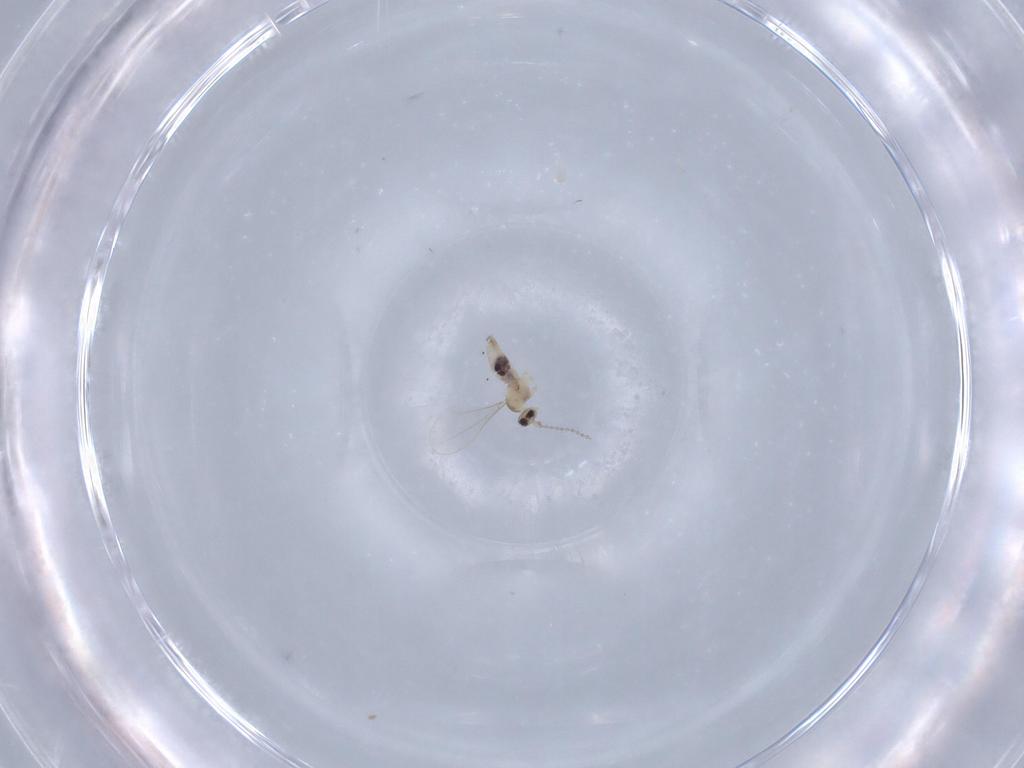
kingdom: Animalia
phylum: Arthropoda
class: Insecta
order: Diptera
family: Cecidomyiidae
